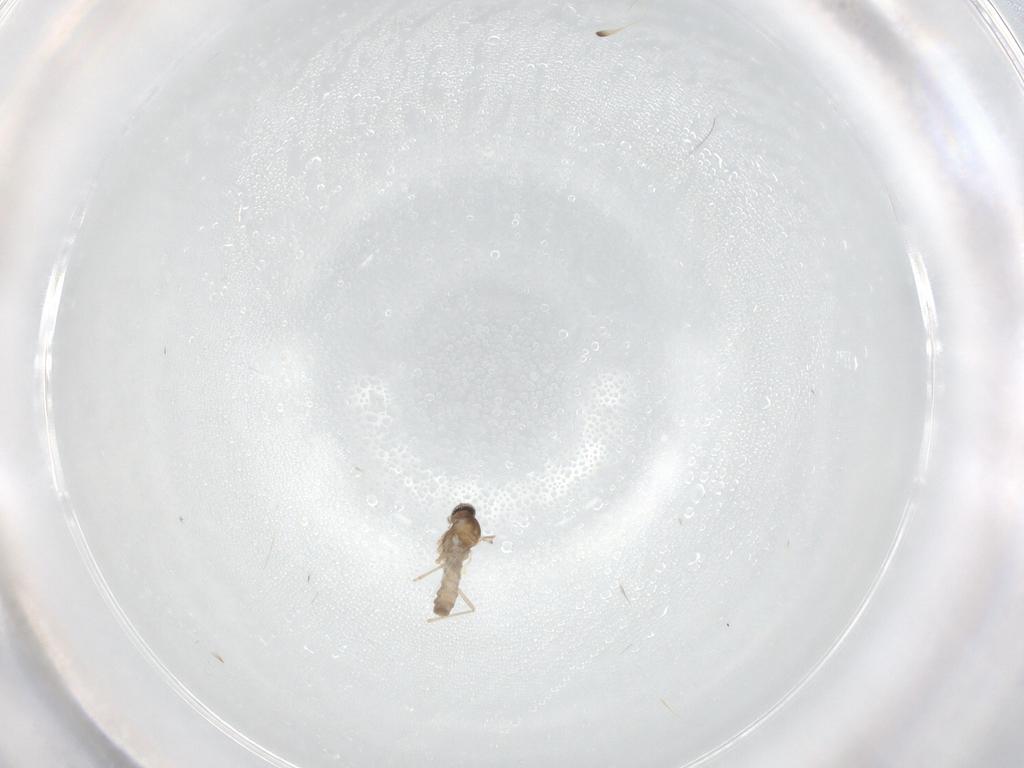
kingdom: Animalia
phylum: Arthropoda
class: Insecta
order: Diptera
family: Cecidomyiidae
